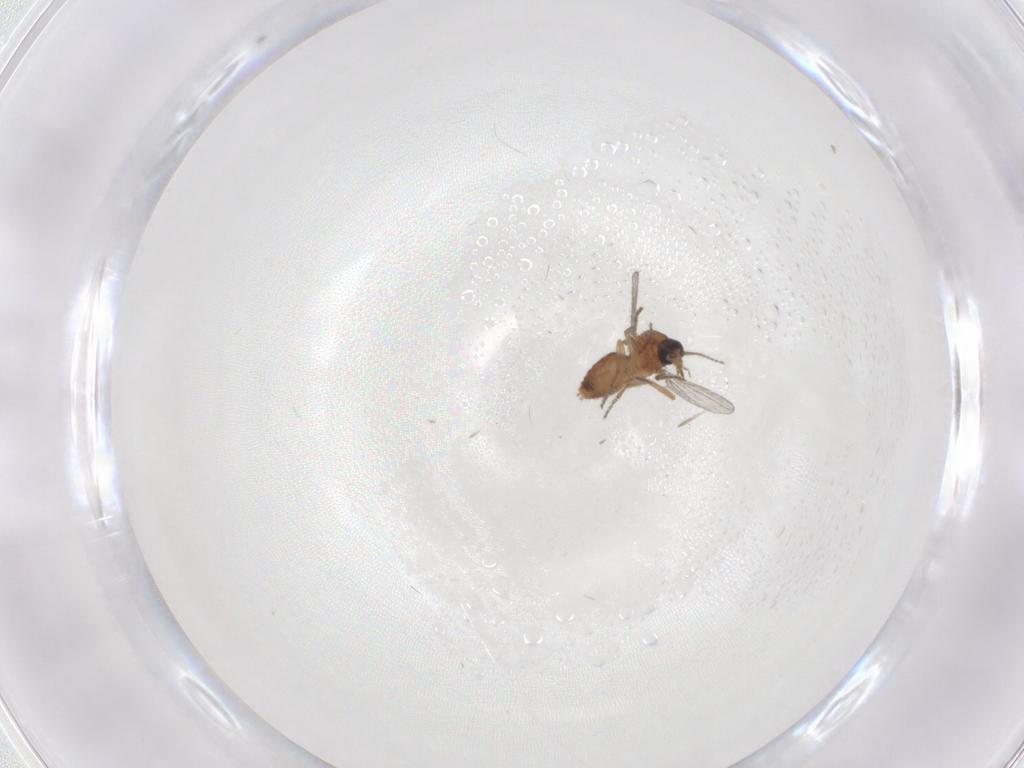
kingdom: Animalia
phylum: Arthropoda
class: Insecta
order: Diptera
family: Ceratopogonidae
